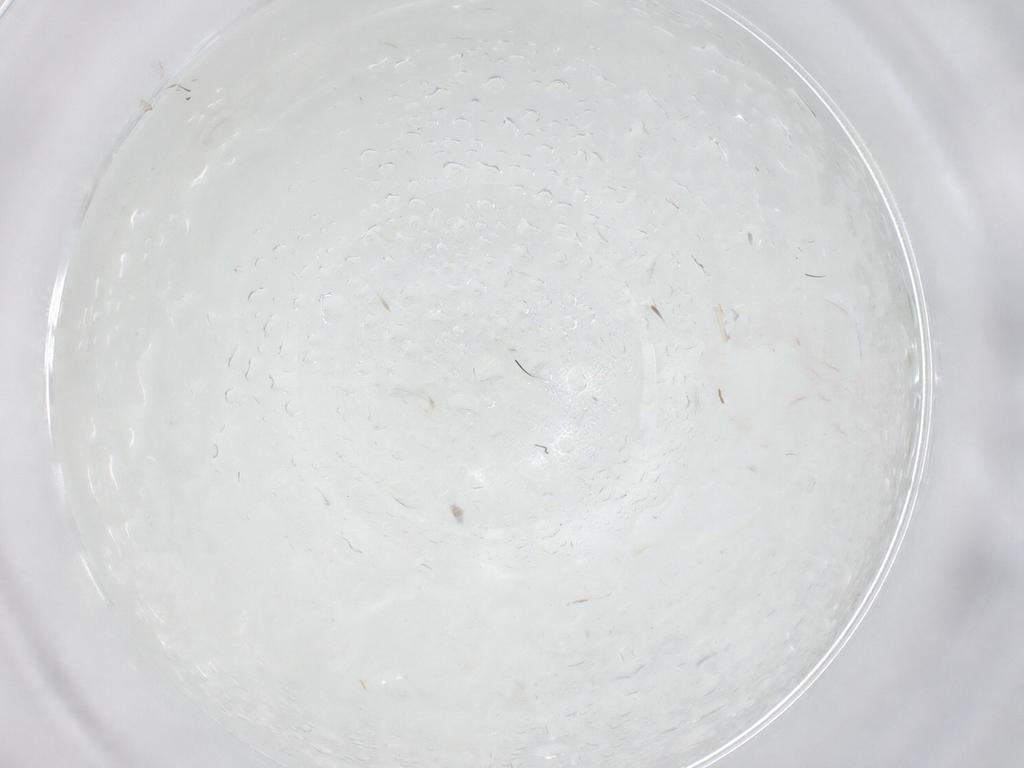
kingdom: Animalia
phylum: Arthropoda
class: Insecta
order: Diptera
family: Chironomidae
